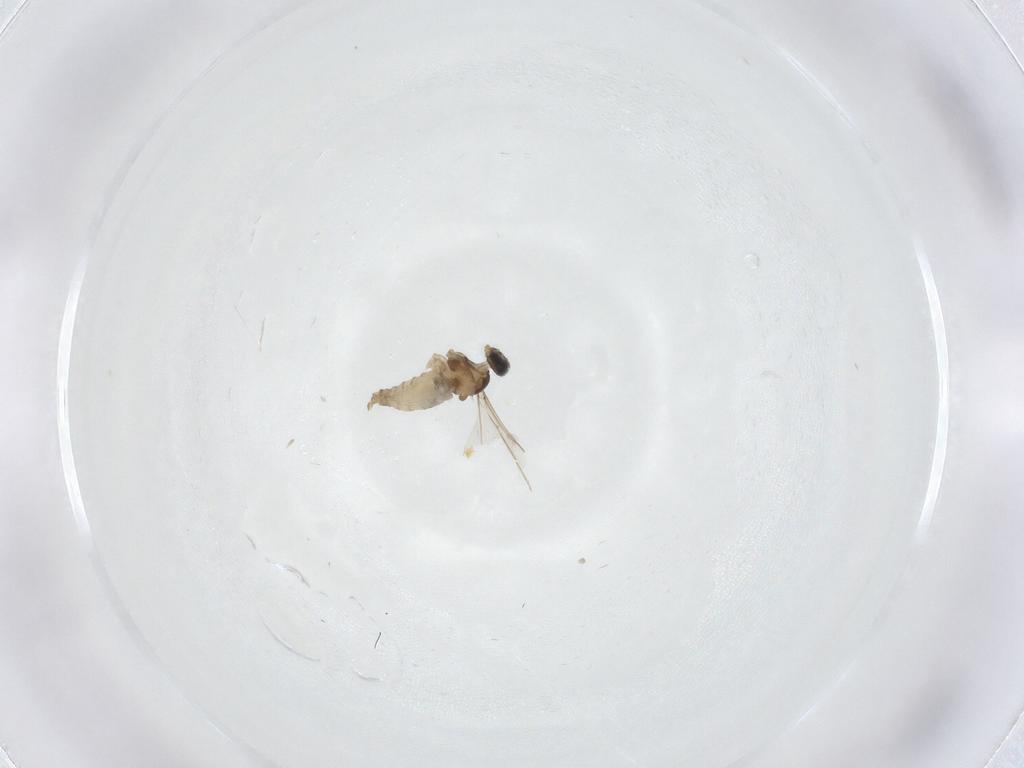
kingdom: Animalia
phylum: Arthropoda
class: Insecta
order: Diptera
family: Cecidomyiidae
